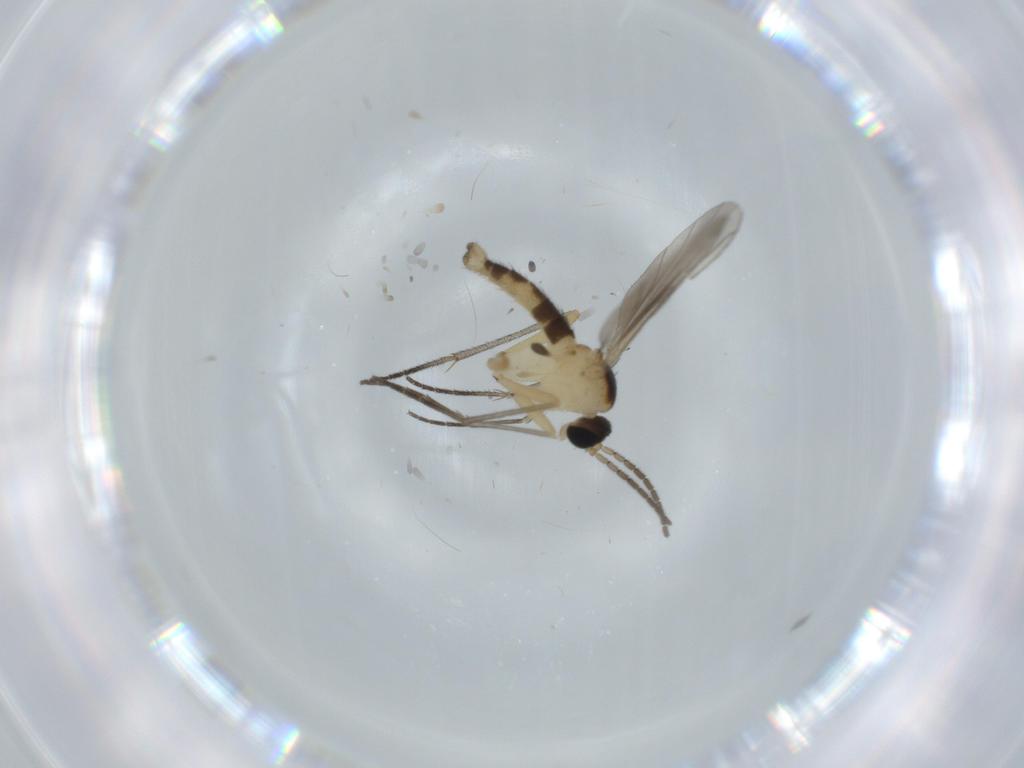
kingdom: Animalia
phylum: Arthropoda
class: Insecta
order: Diptera
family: Sciaridae
